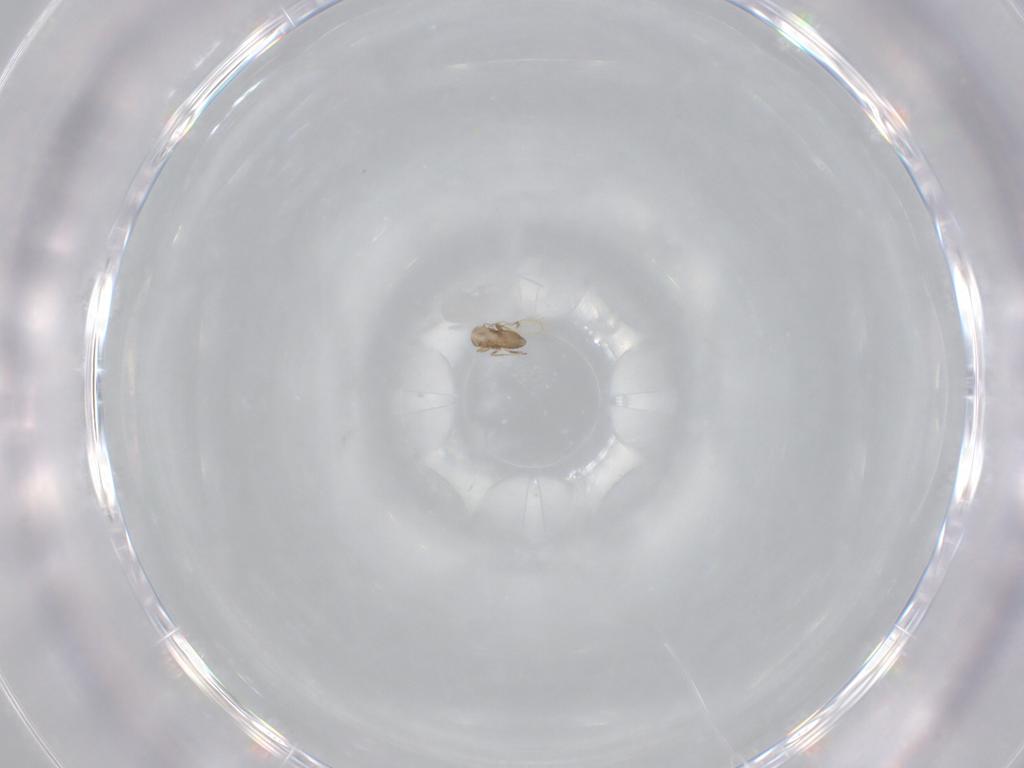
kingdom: Animalia
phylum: Arthropoda
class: Insecta
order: Hymenoptera
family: Trichogrammatidae
